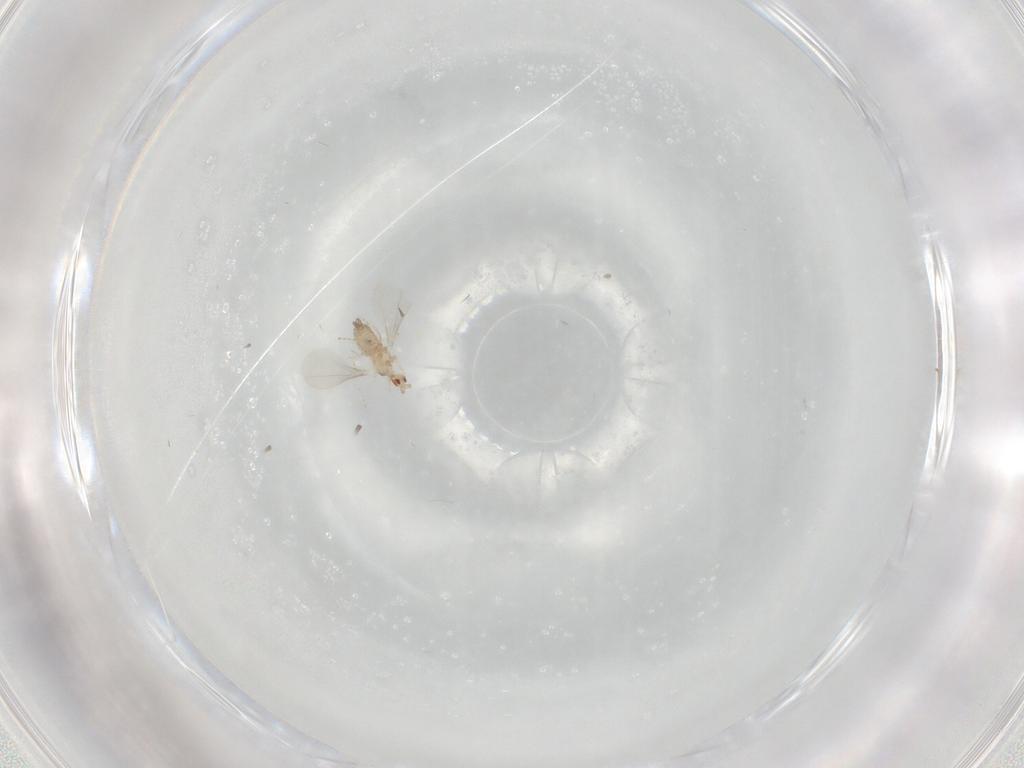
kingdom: Animalia
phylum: Arthropoda
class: Insecta
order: Diptera
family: Cecidomyiidae
